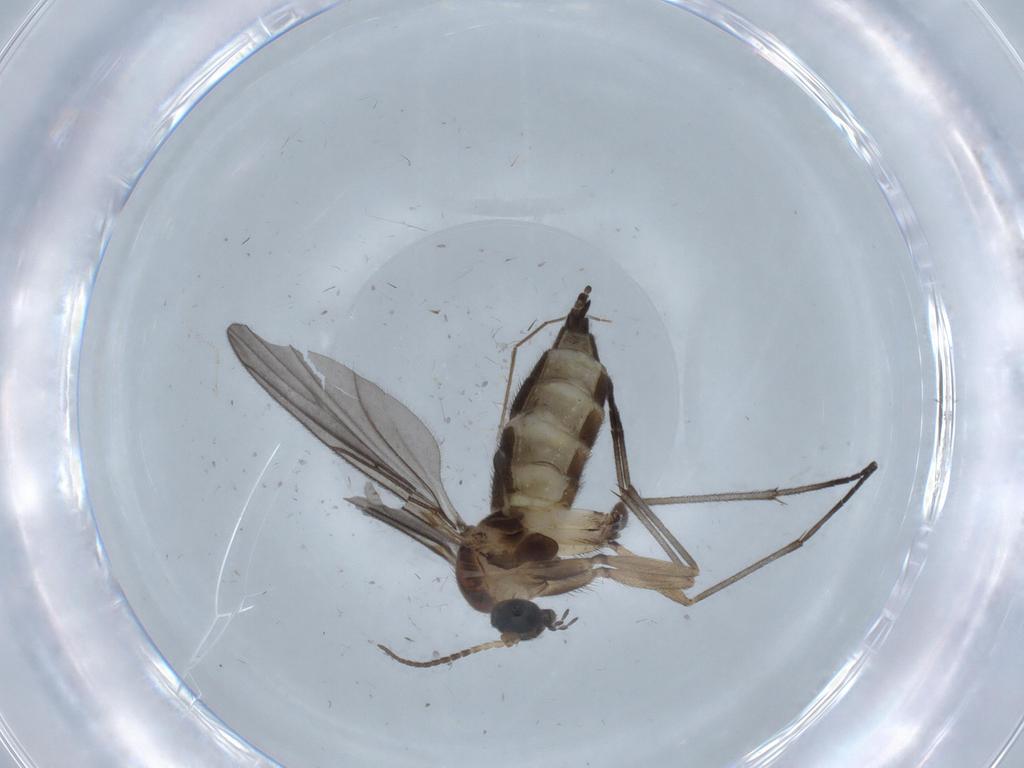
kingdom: Animalia
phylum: Arthropoda
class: Insecta
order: Diptera
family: Sciaridae
